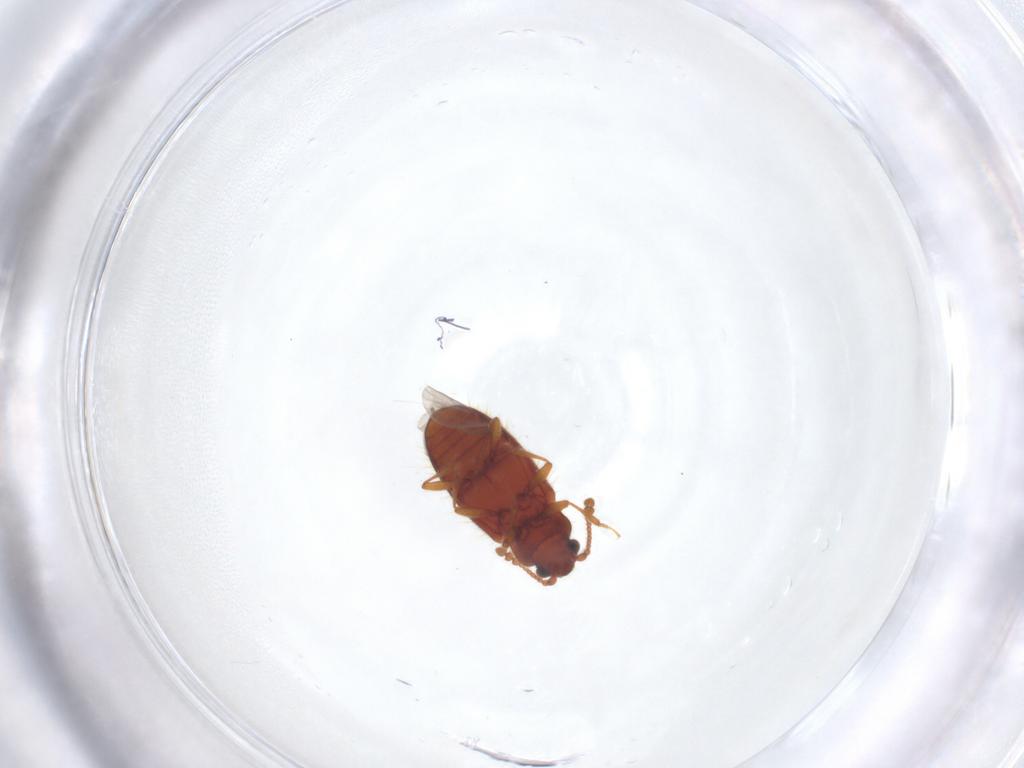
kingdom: Animalia
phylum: Arthropoda
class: Insecta
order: Coleoptera
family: Cryptophagidae
